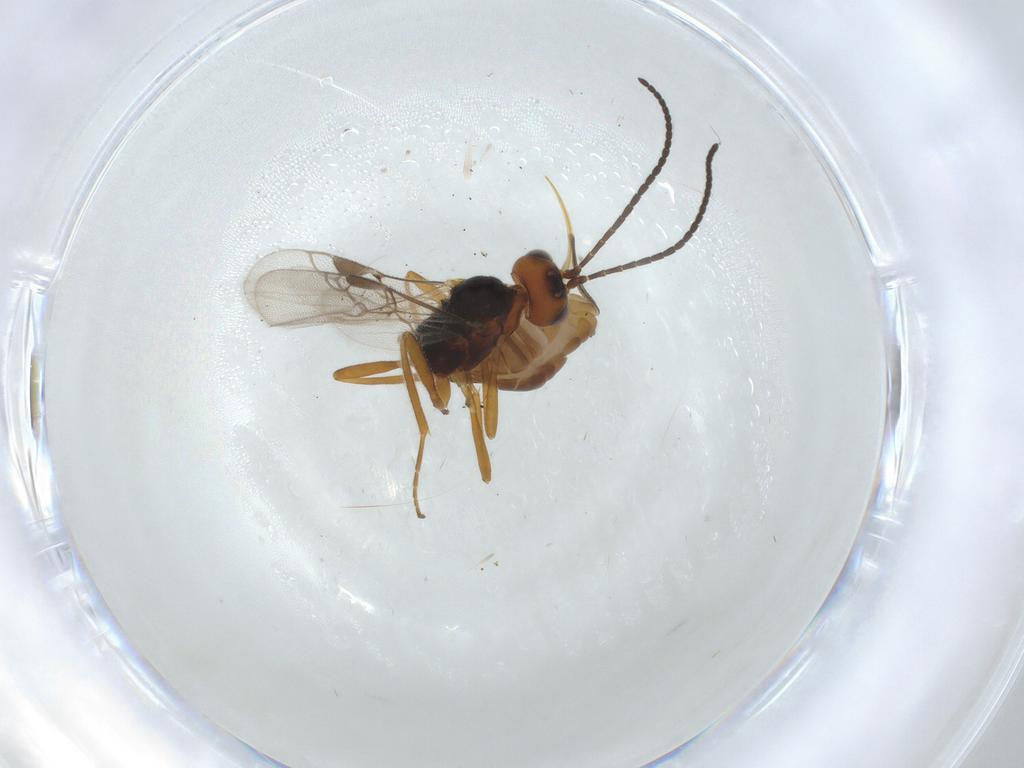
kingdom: Animalia
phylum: Arthropoda
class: Insecta
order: Hymenoptera
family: Braconidae
